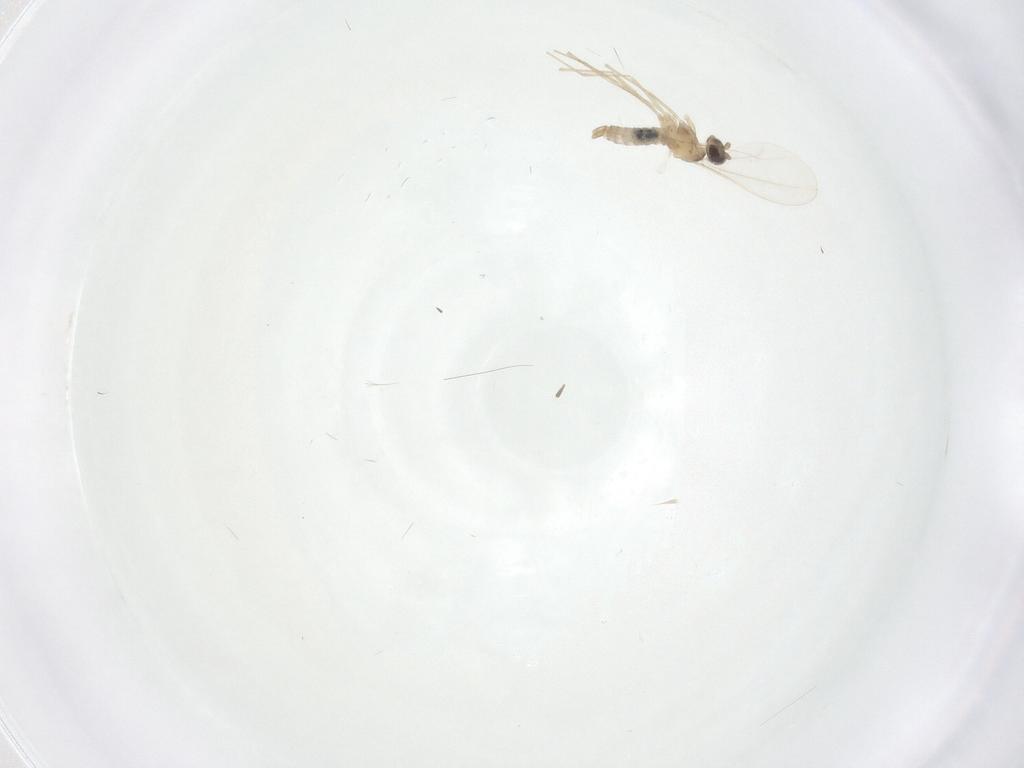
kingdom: Animalia
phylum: Arthropoda
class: Insecta
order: Diptera
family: Cecidomyiidae
